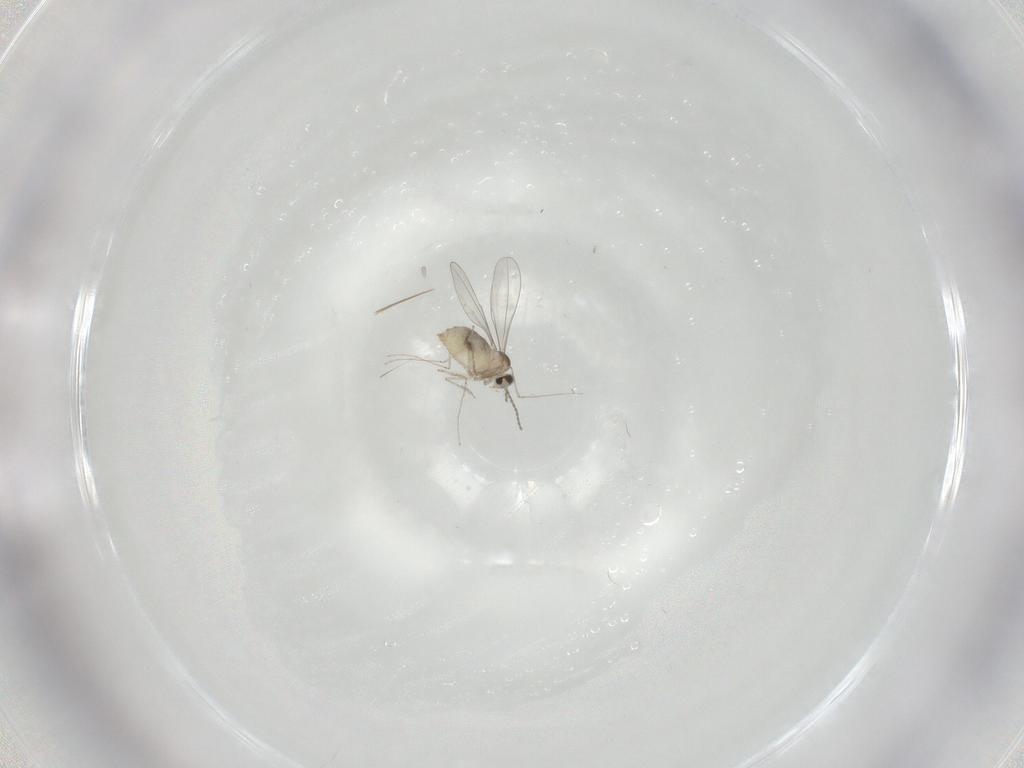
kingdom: Animalia
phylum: Arthropoda
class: Insecta
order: Diptera
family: Cecidomyiidae
